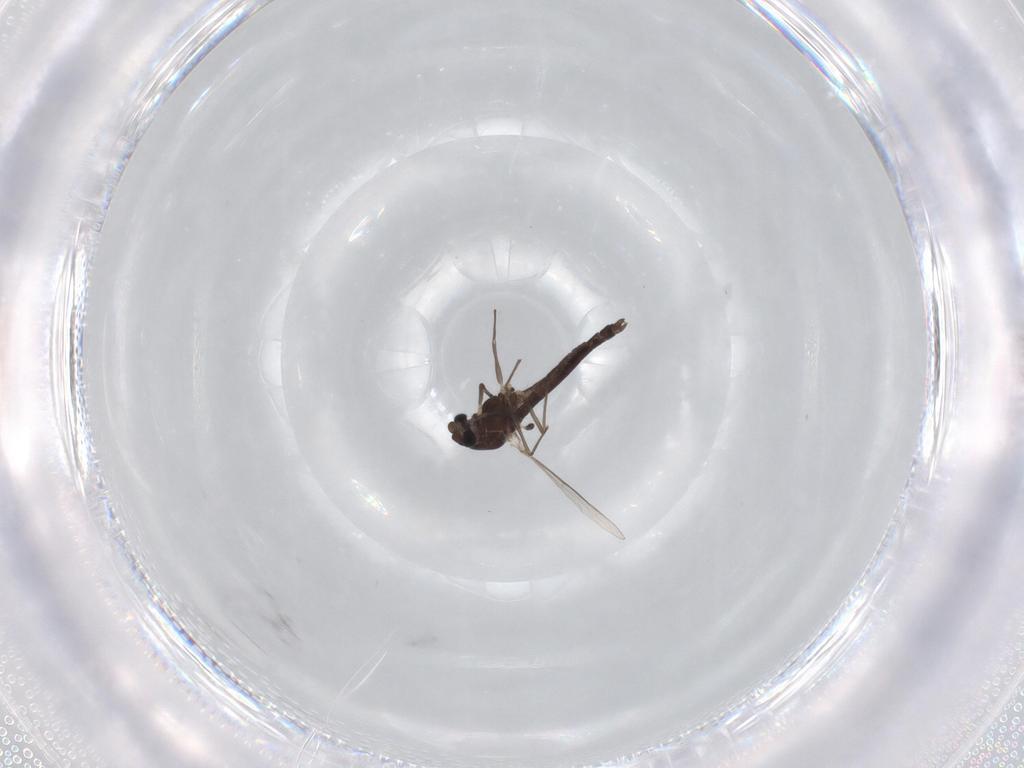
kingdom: Animalia
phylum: Arthropoda
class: Insecta
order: Diptera
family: Chironomidae
